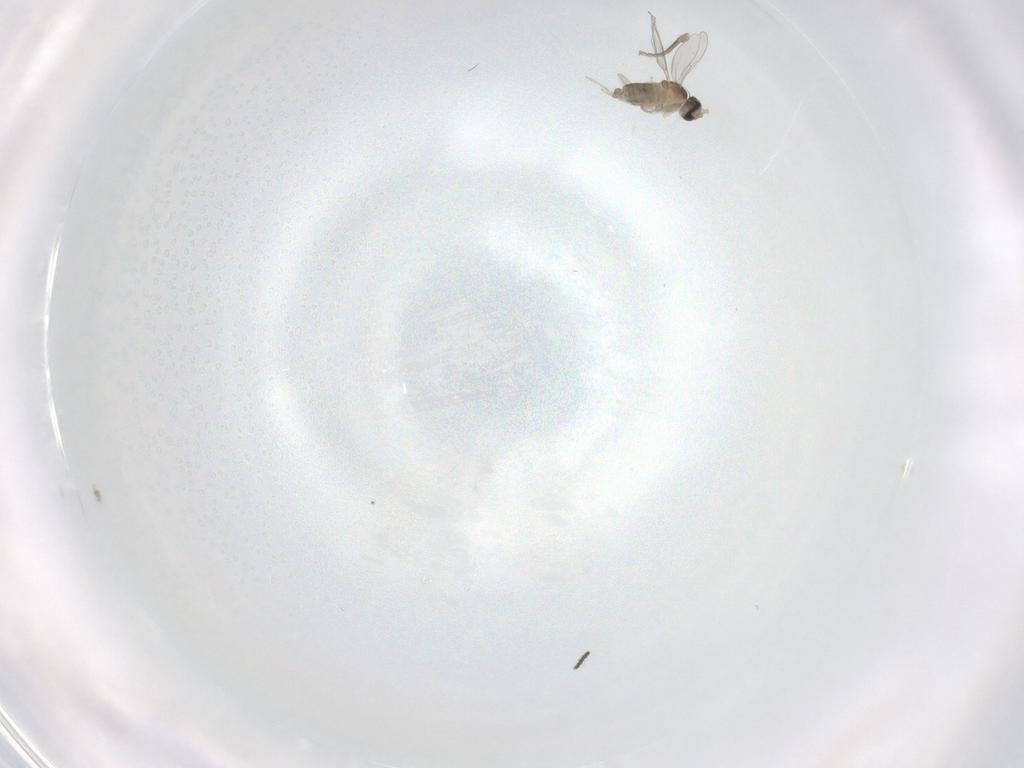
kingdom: Animalia
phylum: Arthropoda
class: Insecta
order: Diptera
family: Cecidomyiidae
